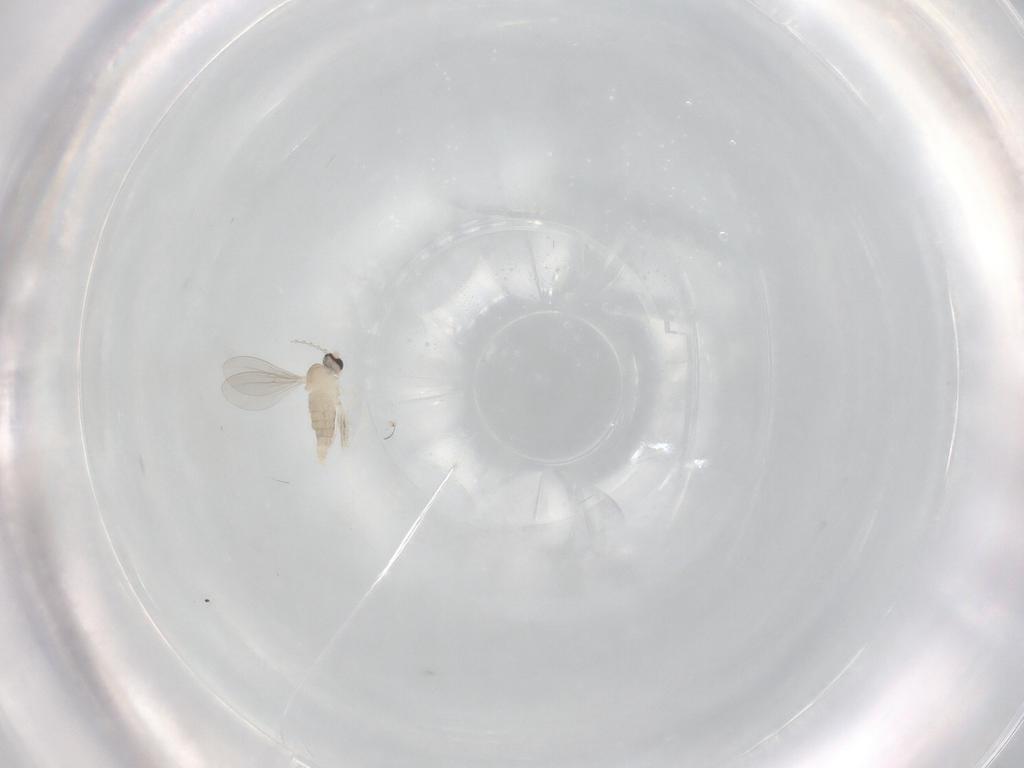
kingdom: Animalia
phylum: Arthropoda
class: Insecta
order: Diptera
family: Cecidomyiidae
